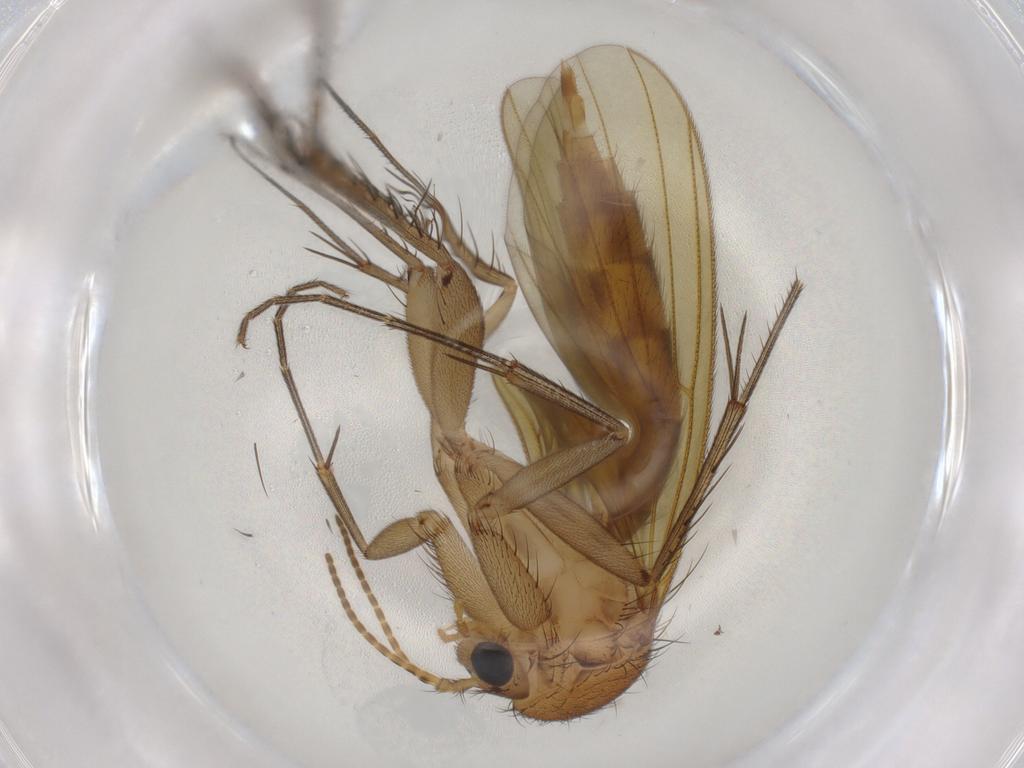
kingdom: Animalia
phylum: Arthropoda
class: Insecta
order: Diptera
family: Mycetophilidae
